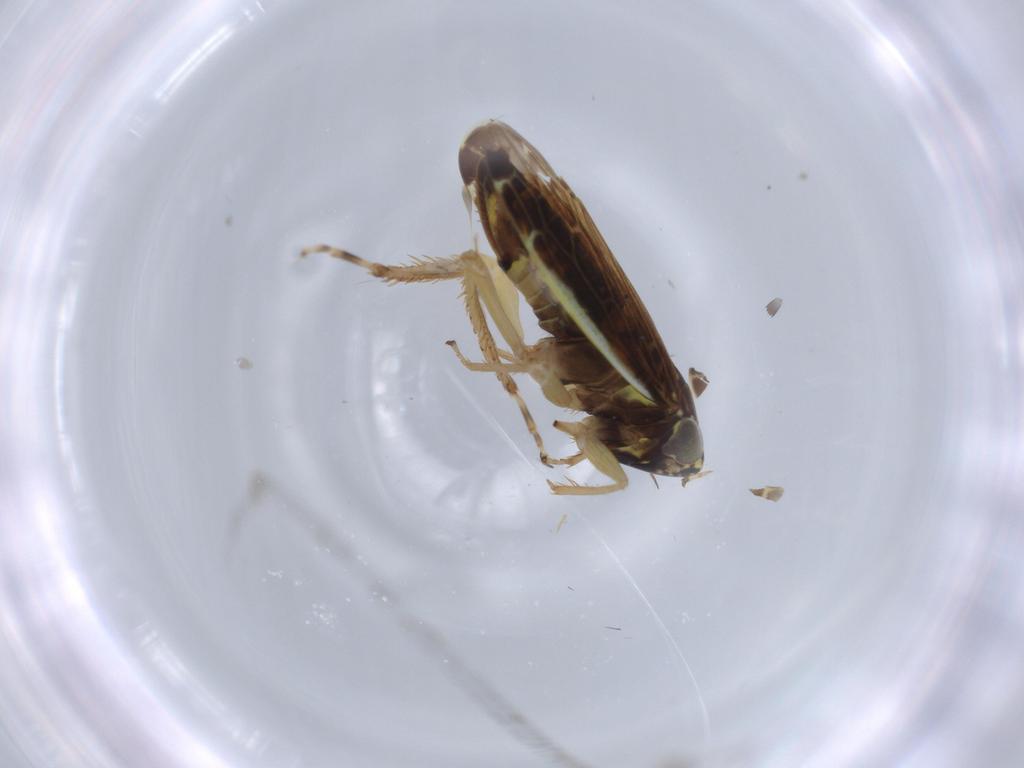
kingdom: Animalia
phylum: Arthropoda
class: Insecta
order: Hemiptera
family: Cicadellidae
